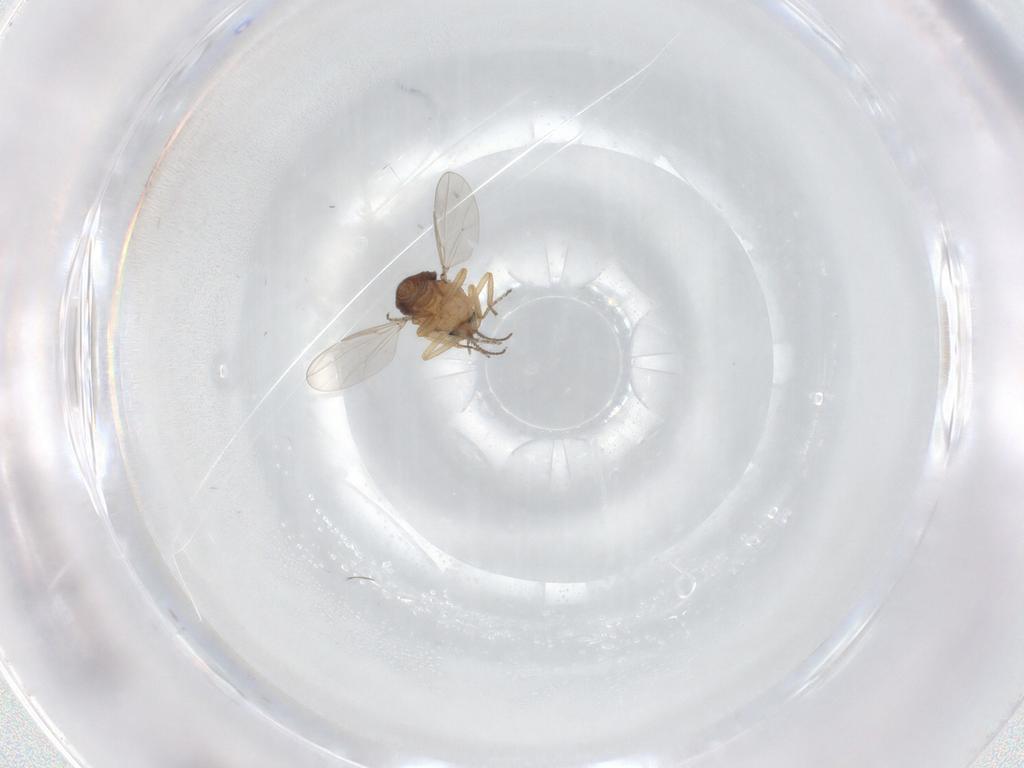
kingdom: Animalia
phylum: Arthropoda
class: Insecta
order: Diptera
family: Ceratopogonidae
